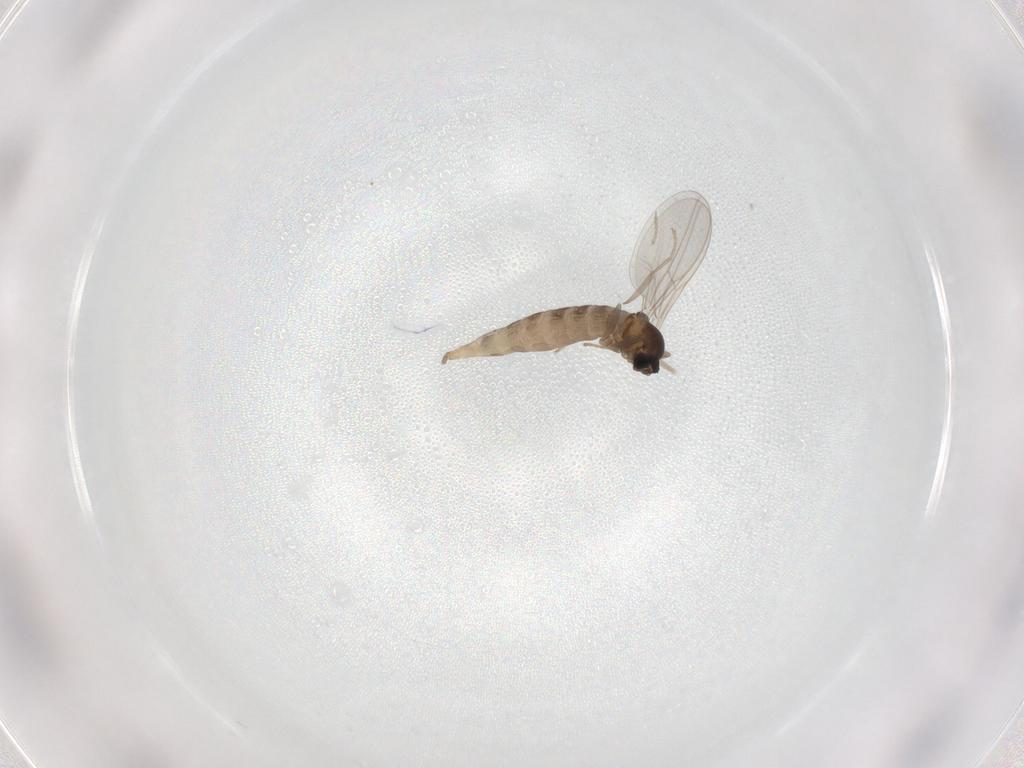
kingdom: Animalia
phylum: Arthropoda
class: Insecta
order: Diptera
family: Cecidomyiidae
